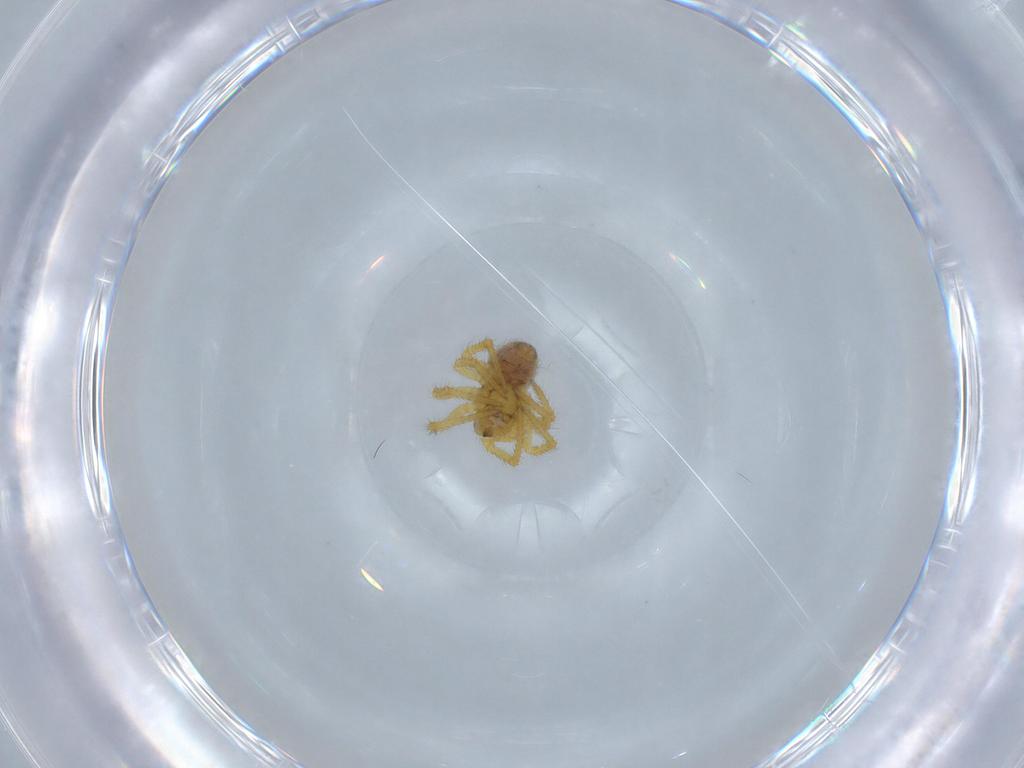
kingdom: Animalia
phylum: Arthropoda
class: Arachnida
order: Araneae
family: Theridiidae
